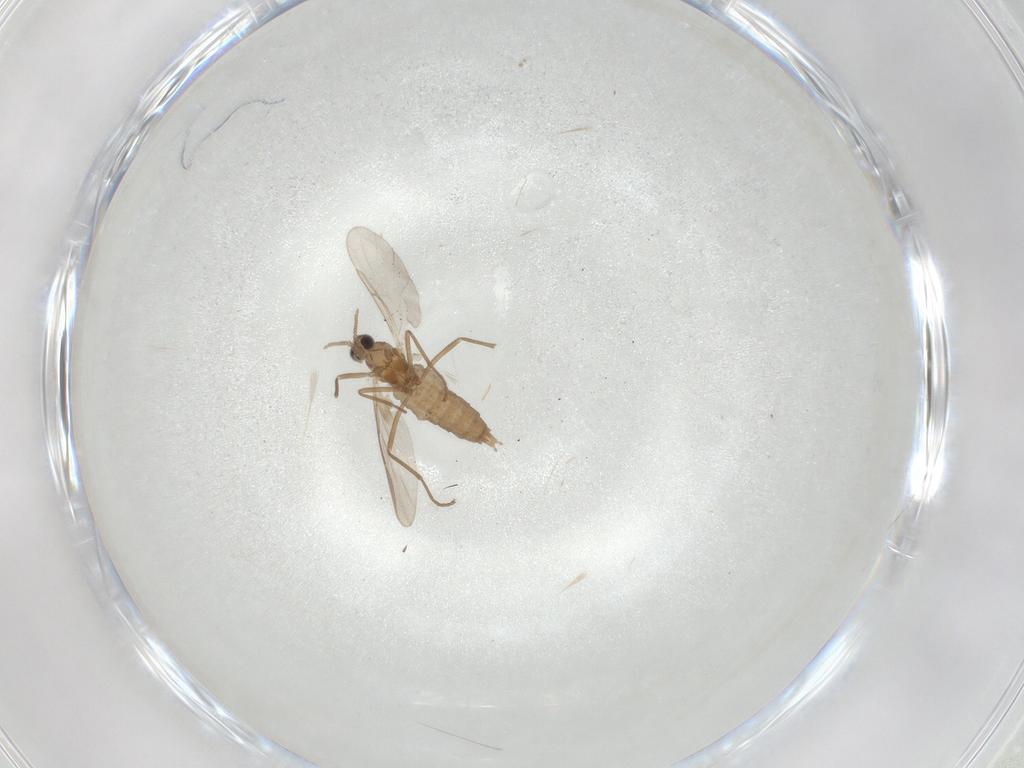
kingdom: Animalia
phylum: Arthropoda
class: Insecta
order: Diptera
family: Cecidomyiidae
